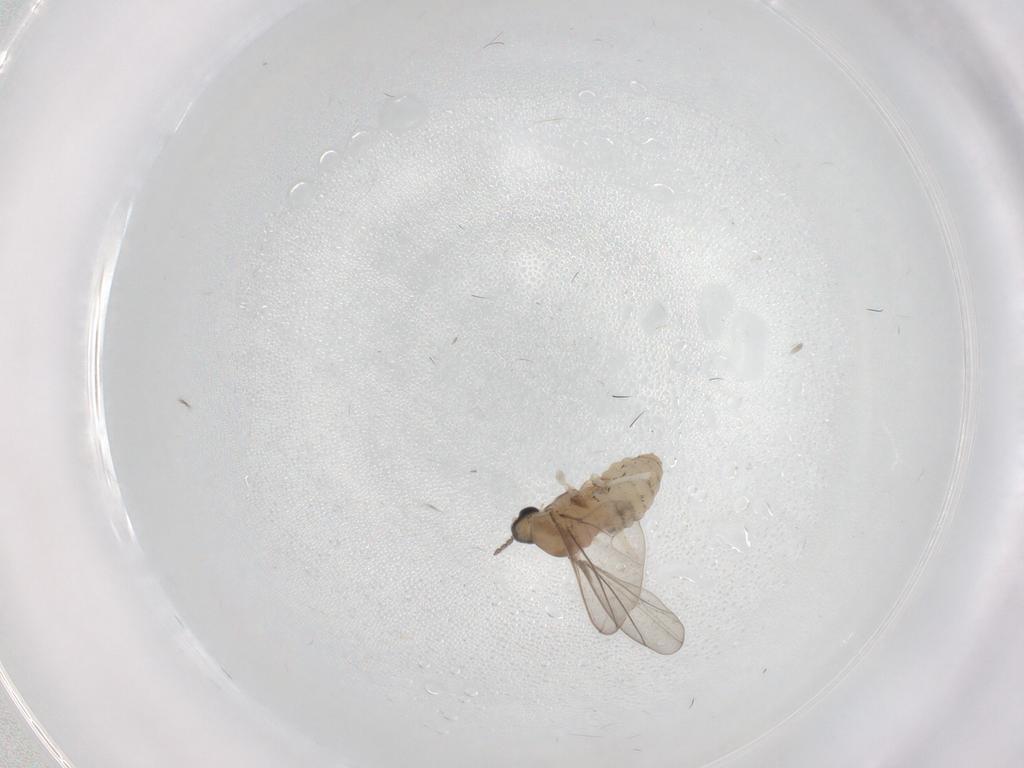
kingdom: Animalia
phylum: Arthropoda
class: Insecta
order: Diptera
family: Cecidomyiidae
